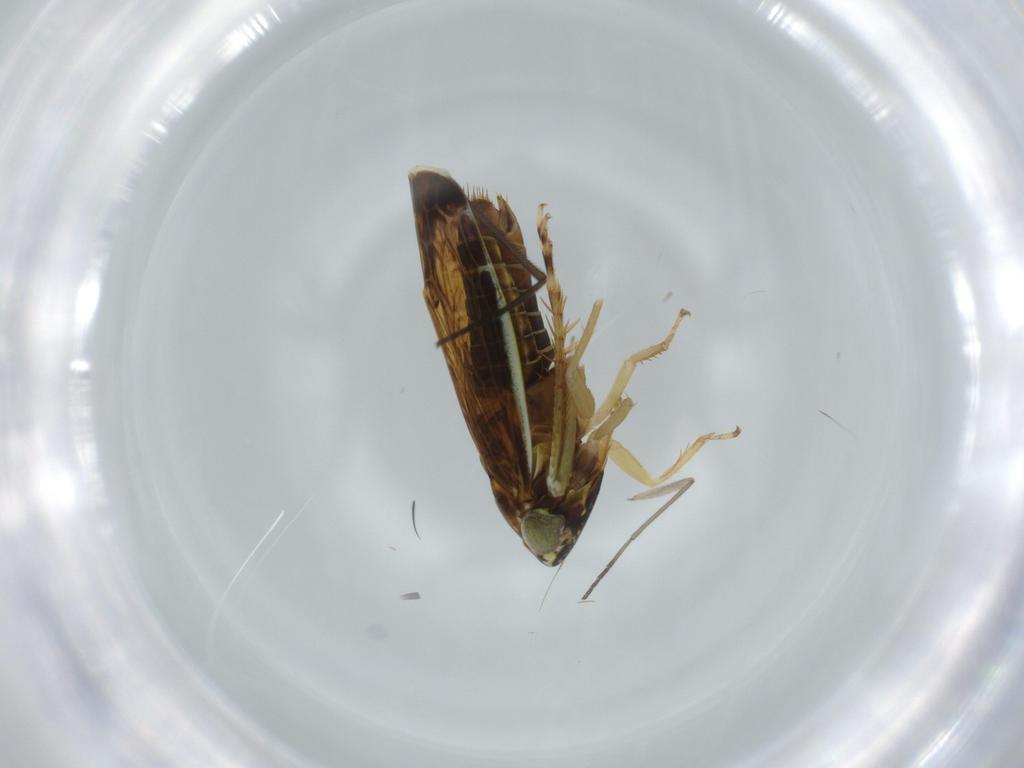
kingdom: Animalia
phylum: Arthropoda
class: Insecta
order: Hemiptera
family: Cicadellidae
